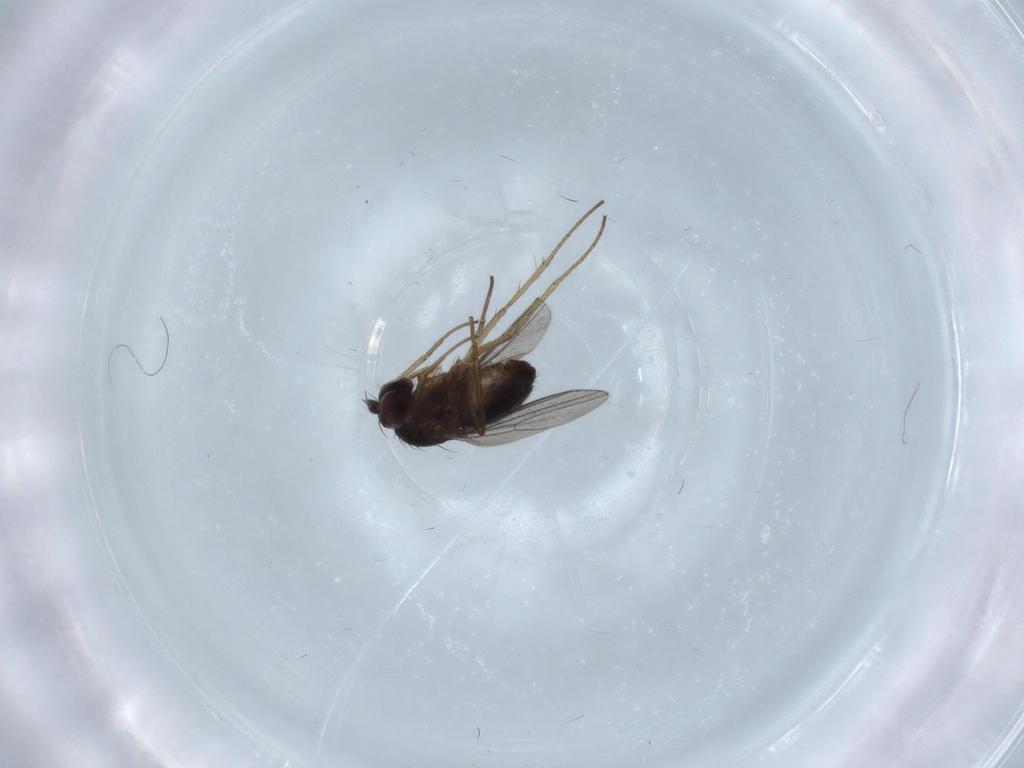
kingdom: Animalia
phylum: Arthropoda
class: Insecta
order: Diptera
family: Dolichopodidae
